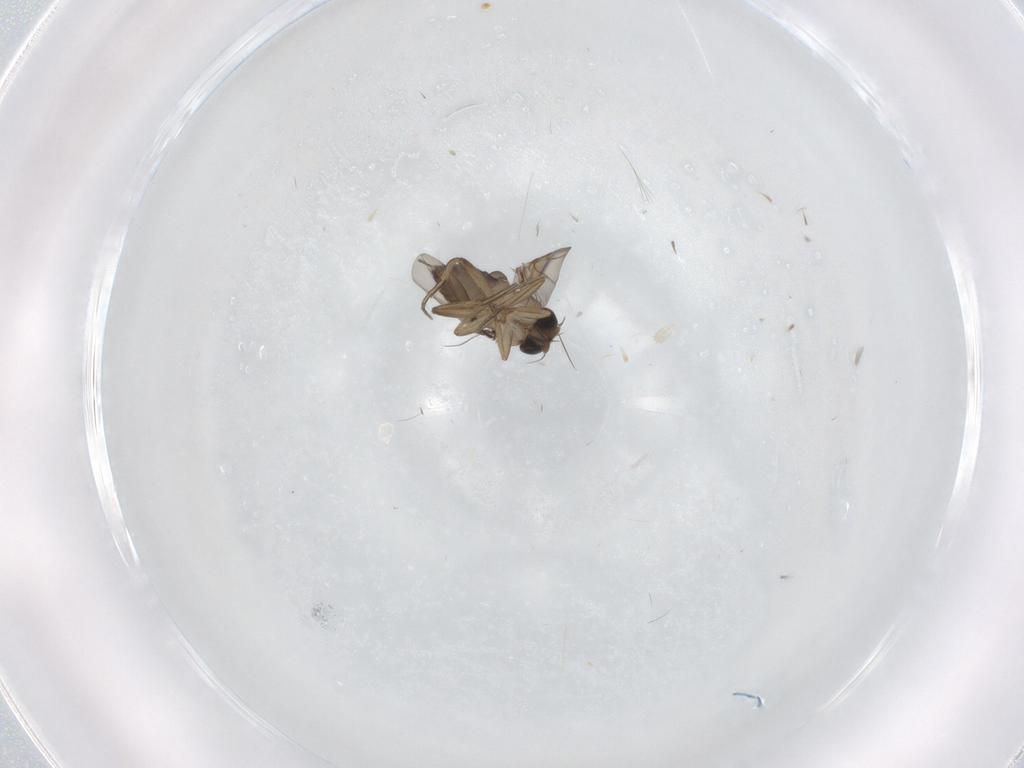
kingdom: Animalia
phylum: Arthropoda
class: Insecta
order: Diptera
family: Phoridae
